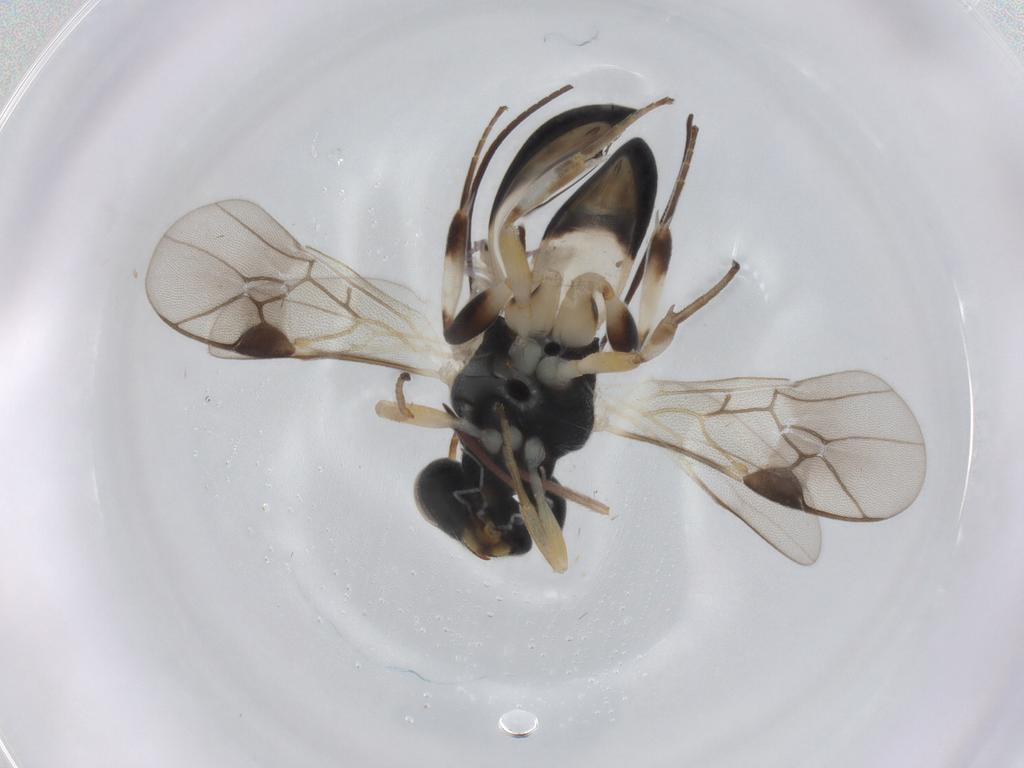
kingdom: Animalia
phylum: Arthropoda
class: Insecta
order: Hymenoptera
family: Braconidae
